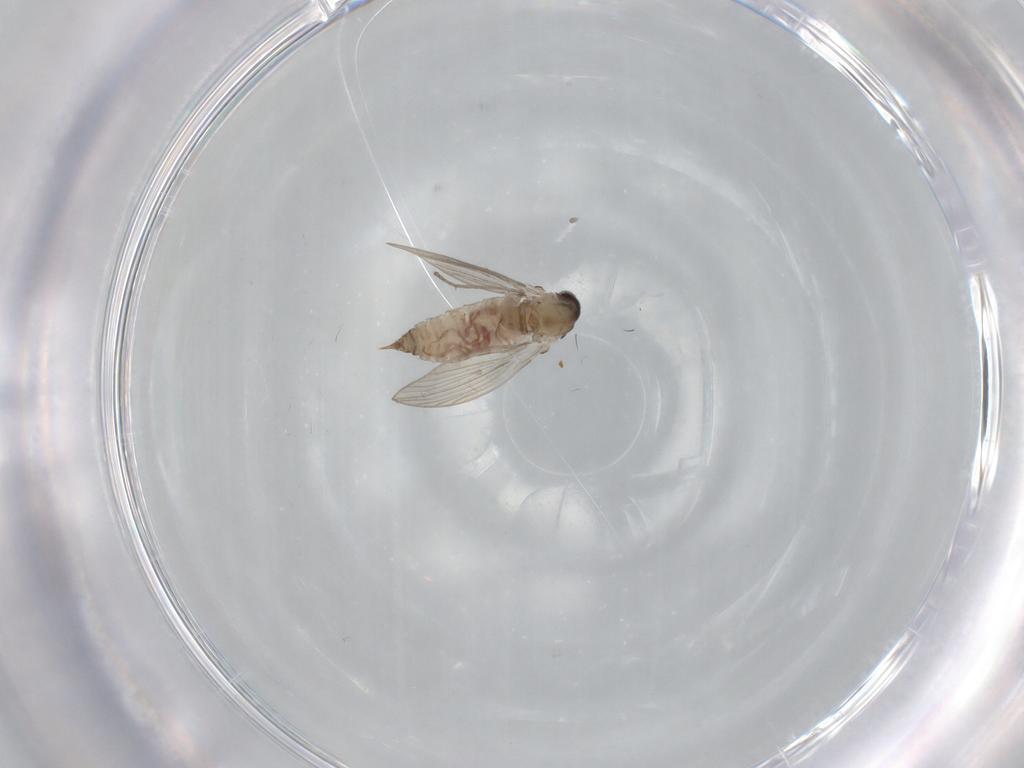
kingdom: Animalia
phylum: Arthropoda
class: Insecta
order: Diptera
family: Psychodidae
